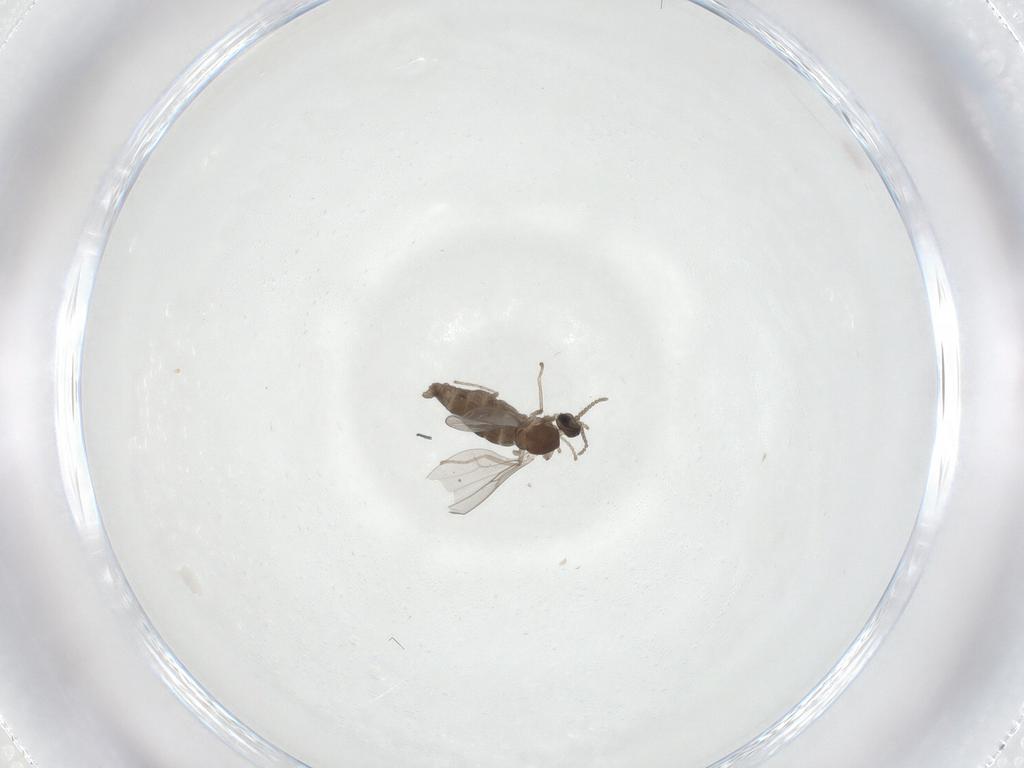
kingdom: Animalia
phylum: Arthropoda
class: Insecta
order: Diptera
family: Cecidomyiidae
